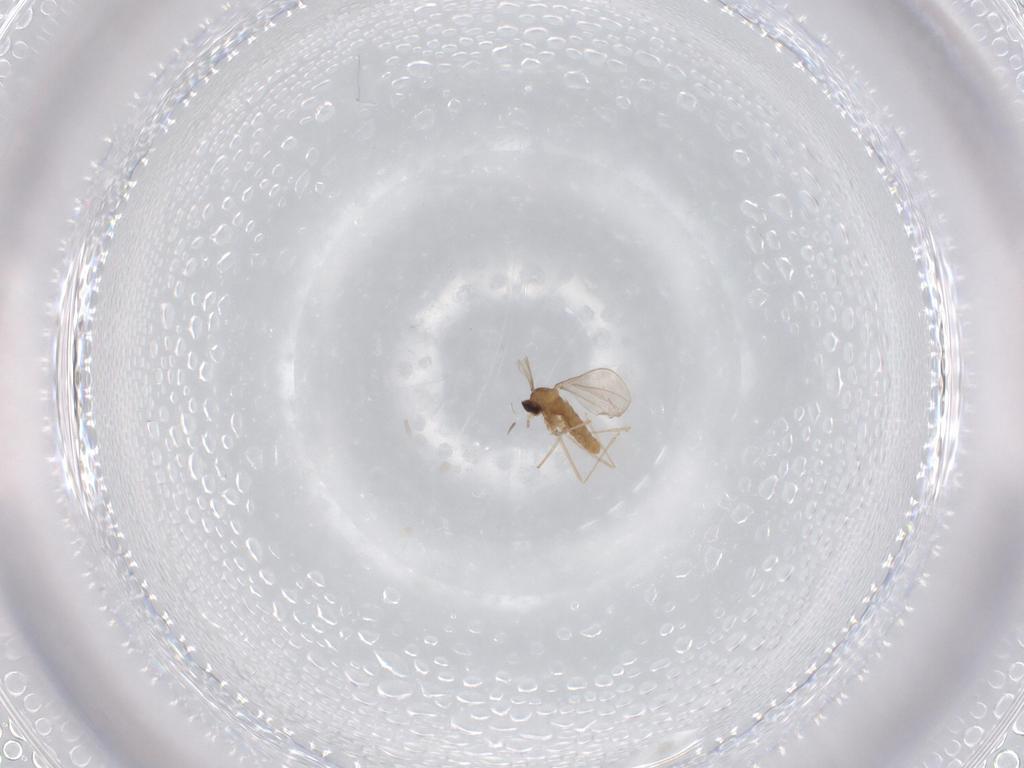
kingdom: Animalia
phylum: Arthropoda
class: Insecta
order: Diptera
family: Cecidomyiidae
